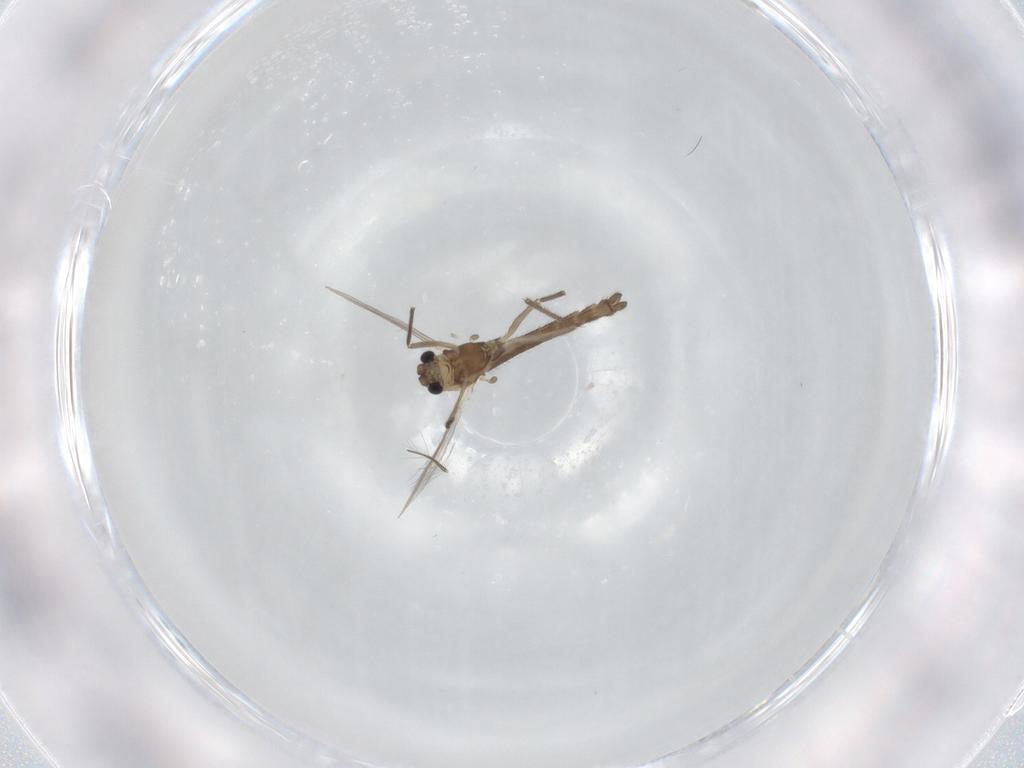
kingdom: Animalia
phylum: Arthropoda
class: Insecta
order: Diptera
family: Chironomidae
